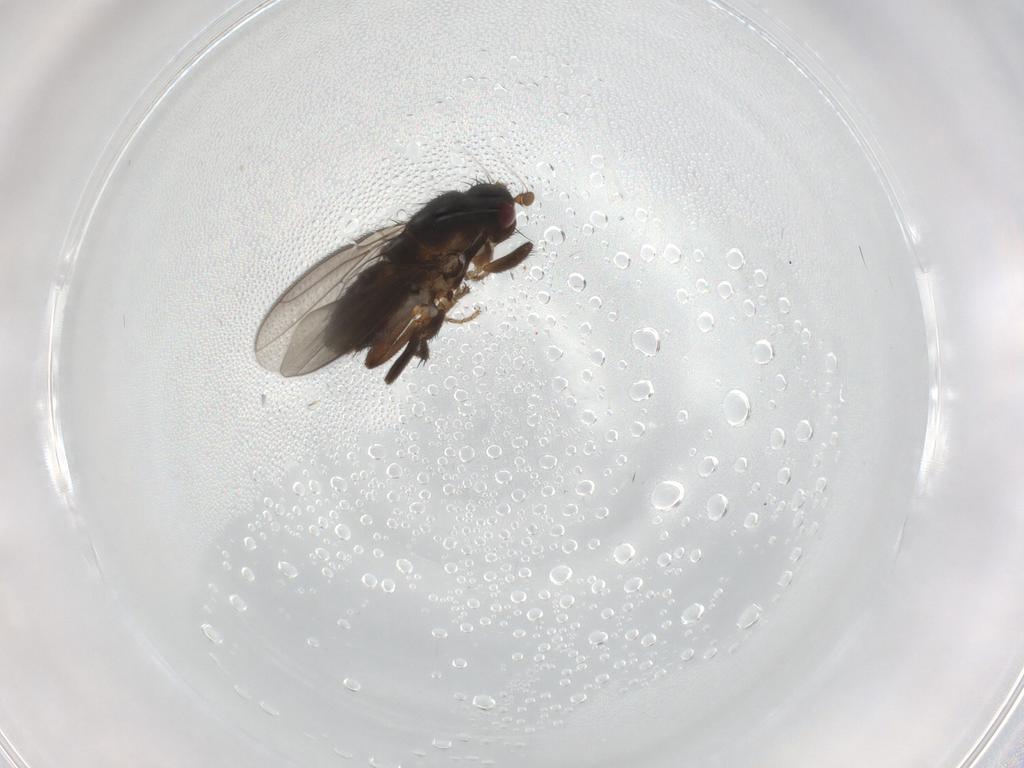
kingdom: Animalia
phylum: Arthropoda
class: Insecta
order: Diptera
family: Sphaeroceridae
